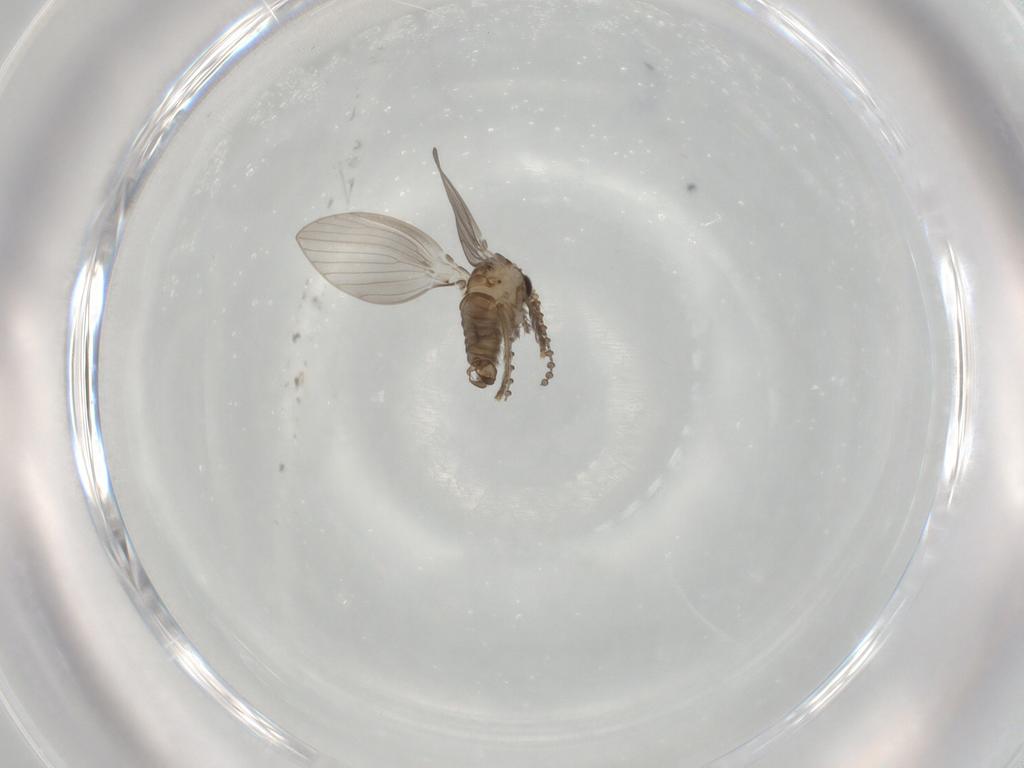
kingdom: Animalia
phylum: Arthropoda
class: Insecta
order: Diptera
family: Psychodidae
